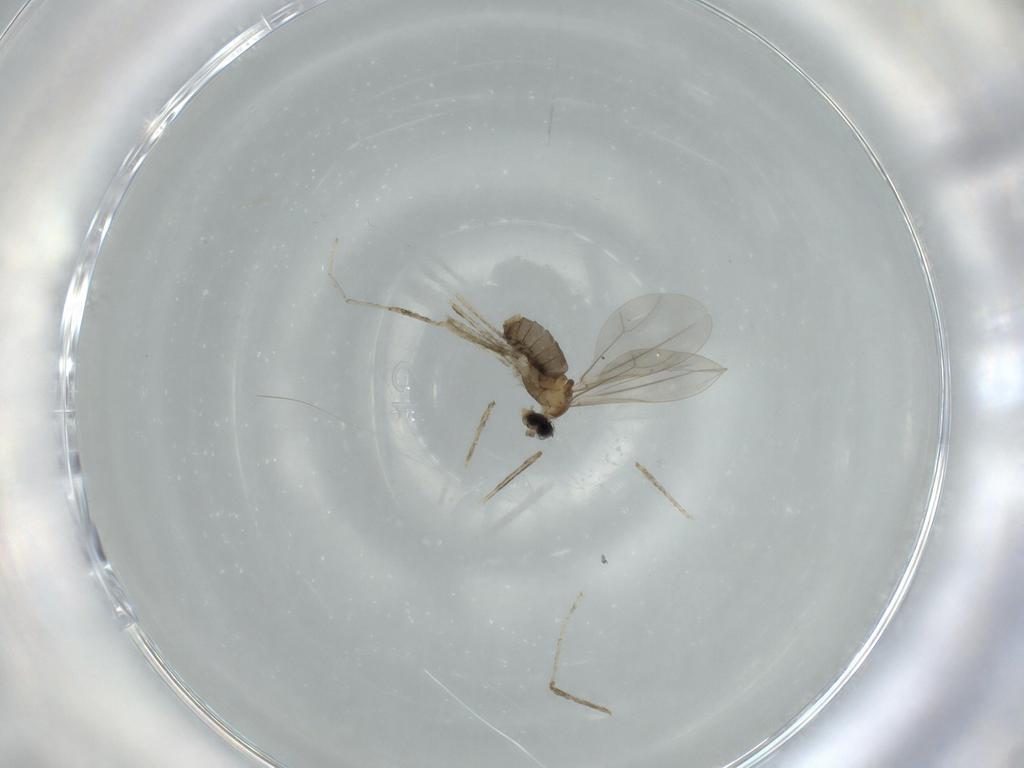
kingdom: Animalia
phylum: Arthropoda
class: Insecta
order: Diptera
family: Cecidomyiidae
